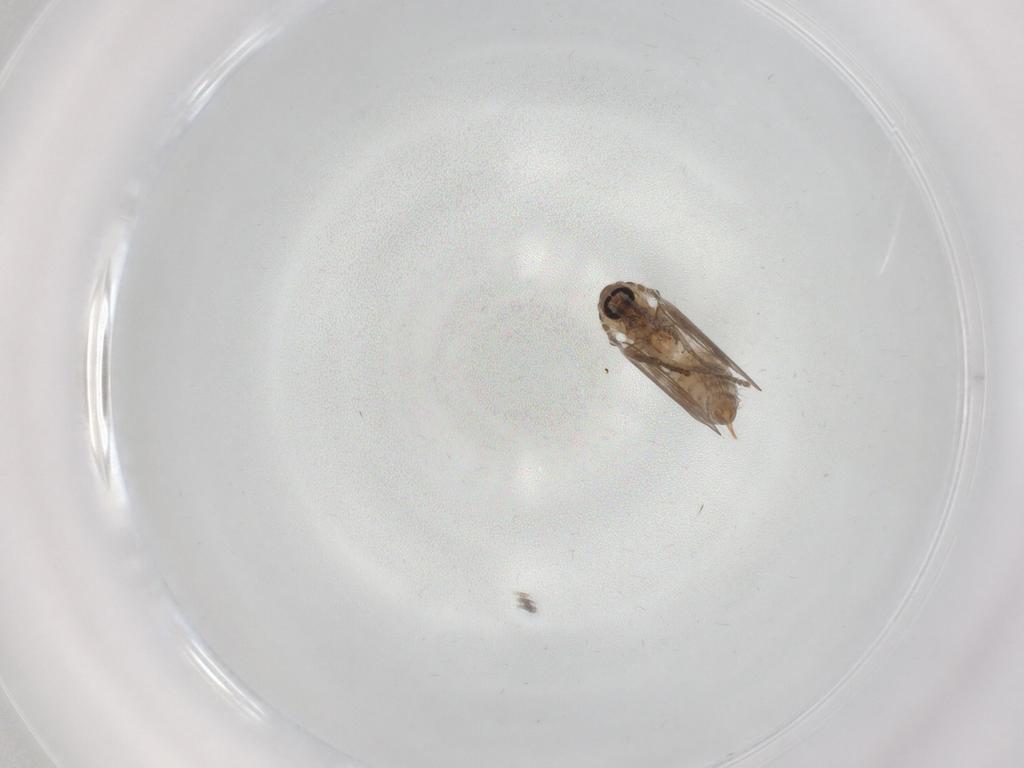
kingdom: Animalia
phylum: Arthropoda
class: Insecta
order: Diptera
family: Psychodidae
